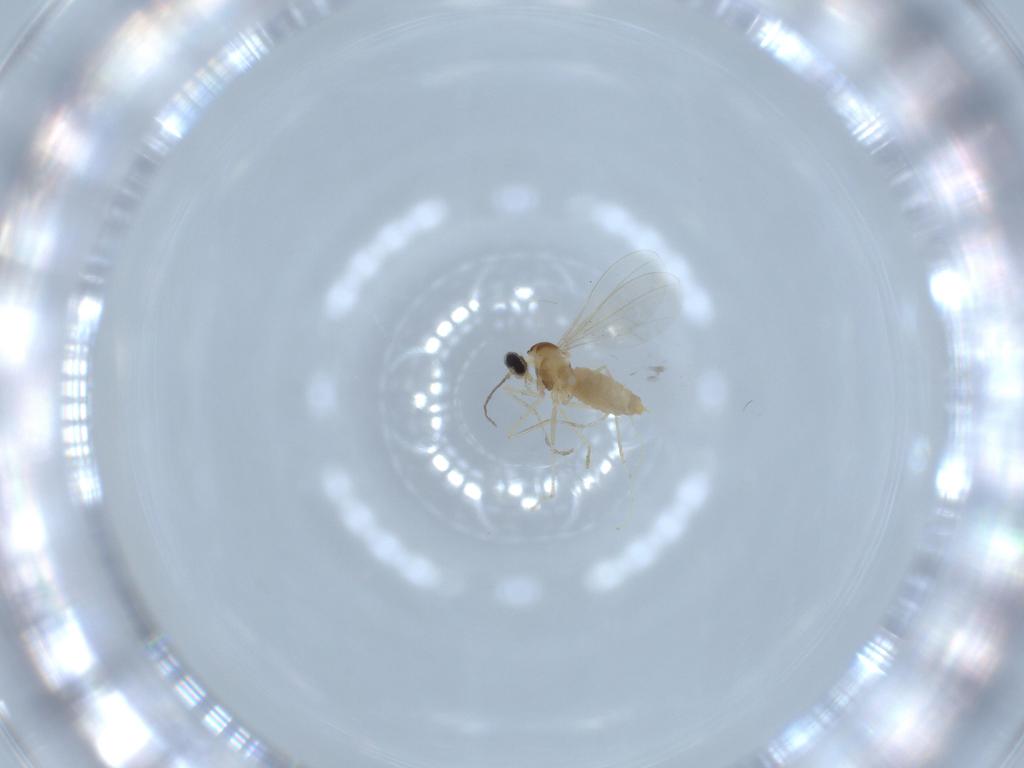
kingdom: Animalia
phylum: Arthropoda
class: Insecta
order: Diptera
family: Cecidomyiidae
